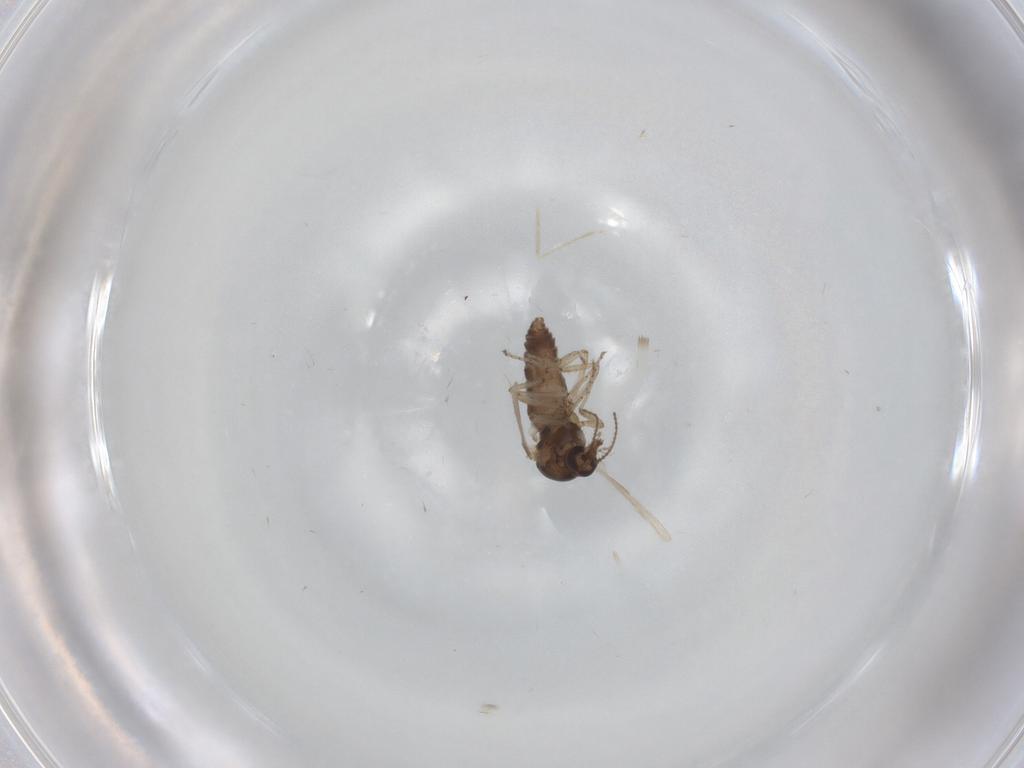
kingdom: Animalia
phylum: Arthropoda
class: Insecta
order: Diptera
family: Ceratopogonidae
